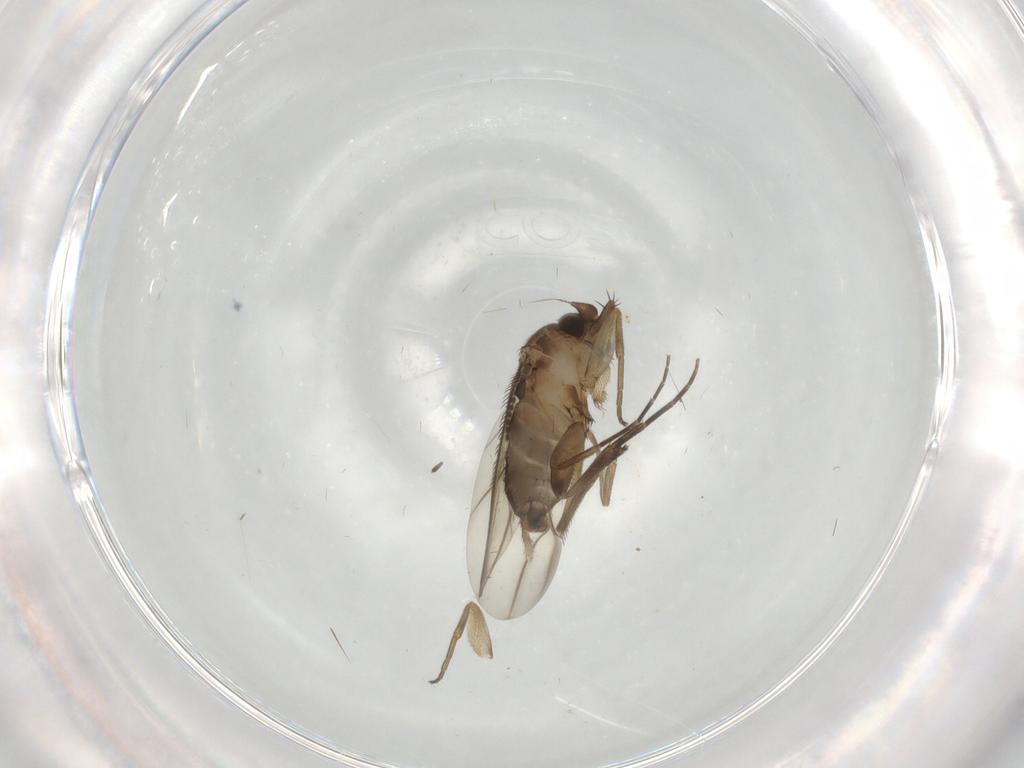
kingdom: Animalia
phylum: Arthropoda
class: Insecta
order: Diptera
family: Phoridae
